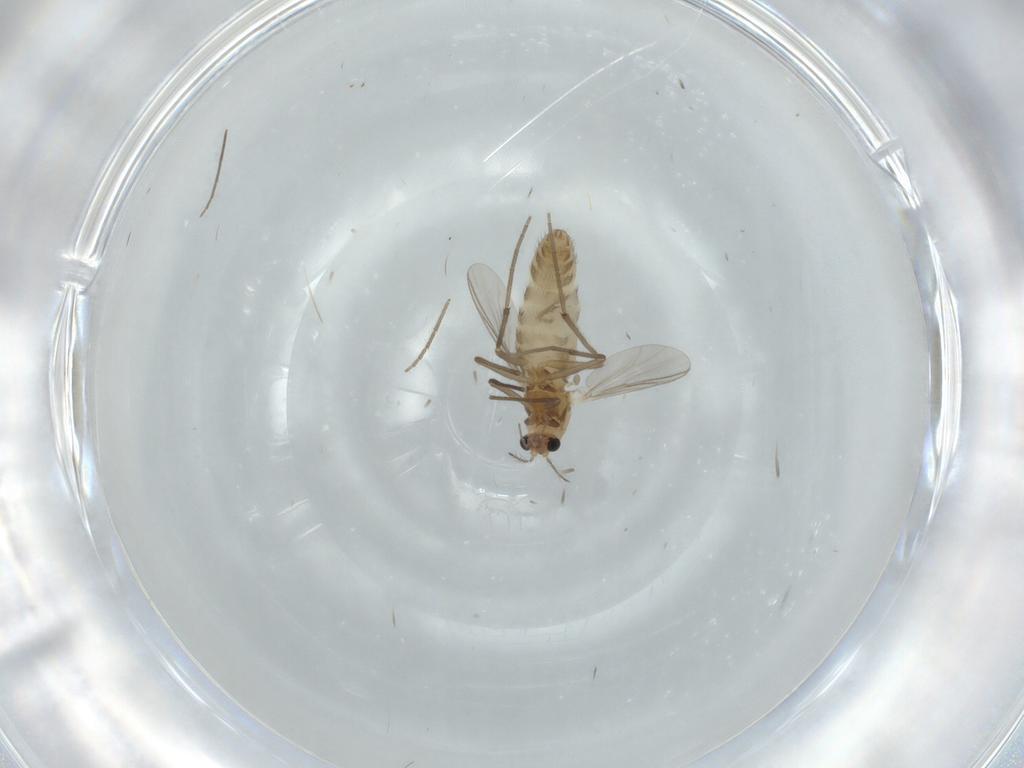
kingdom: Animalia
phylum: Arthropoda
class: Insecta
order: Diptera
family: Chironomidae
